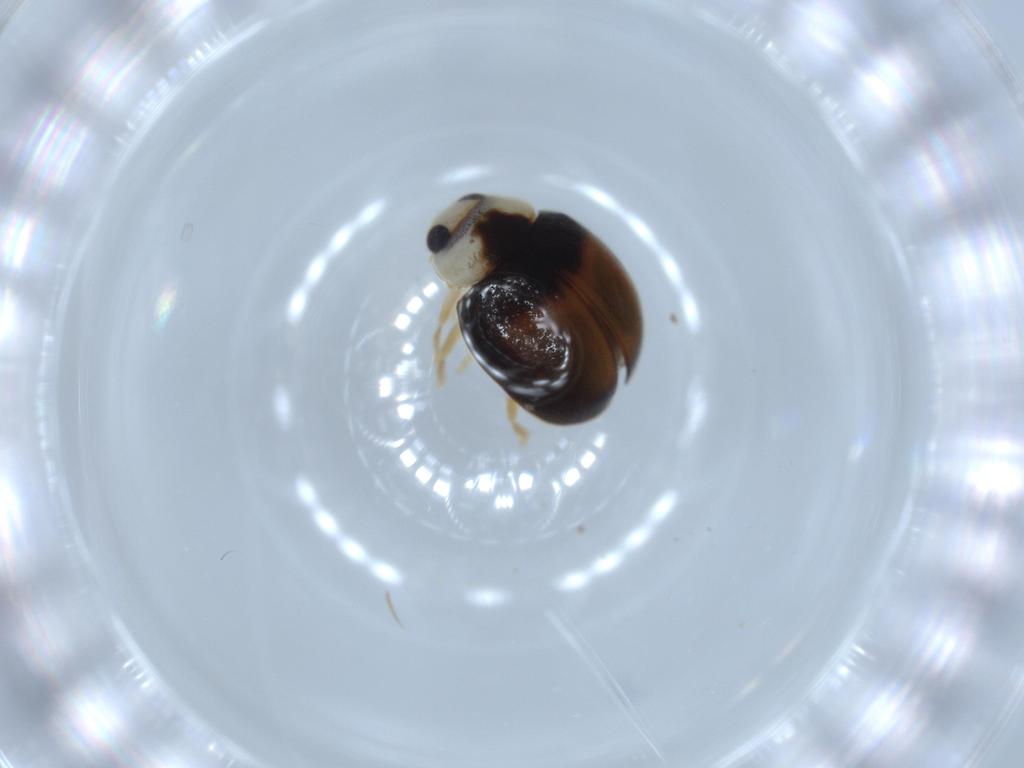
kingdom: Animalia
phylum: Arthropoda
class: Insecta
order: Coleoptera
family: Coccinellidae
